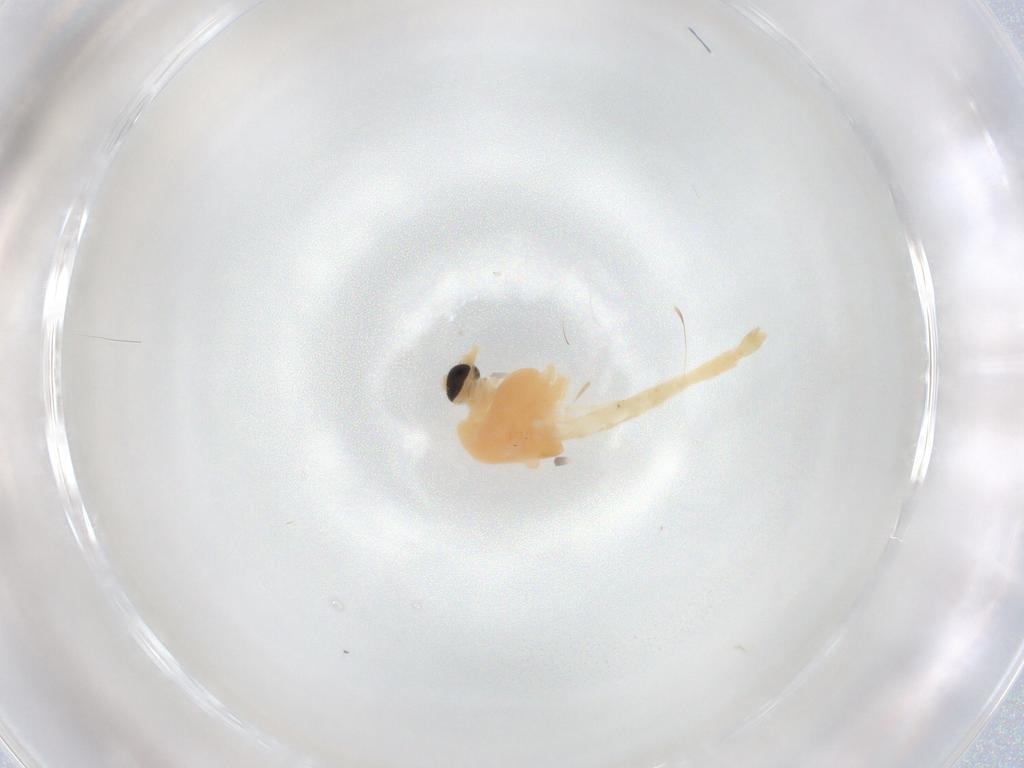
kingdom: Animalia
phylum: Arthropoda
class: Insecta
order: Diptera
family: Chironomidae
